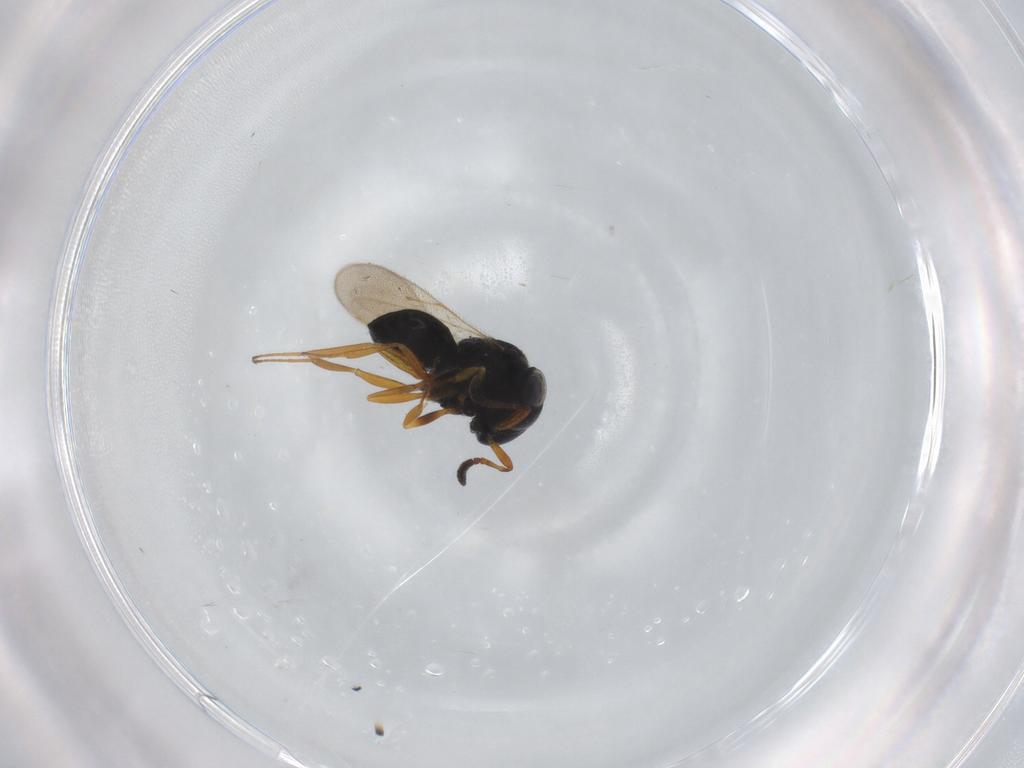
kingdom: Animalia
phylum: Arthropoda
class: Insecta
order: Hymenoptera
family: Scelionidae
